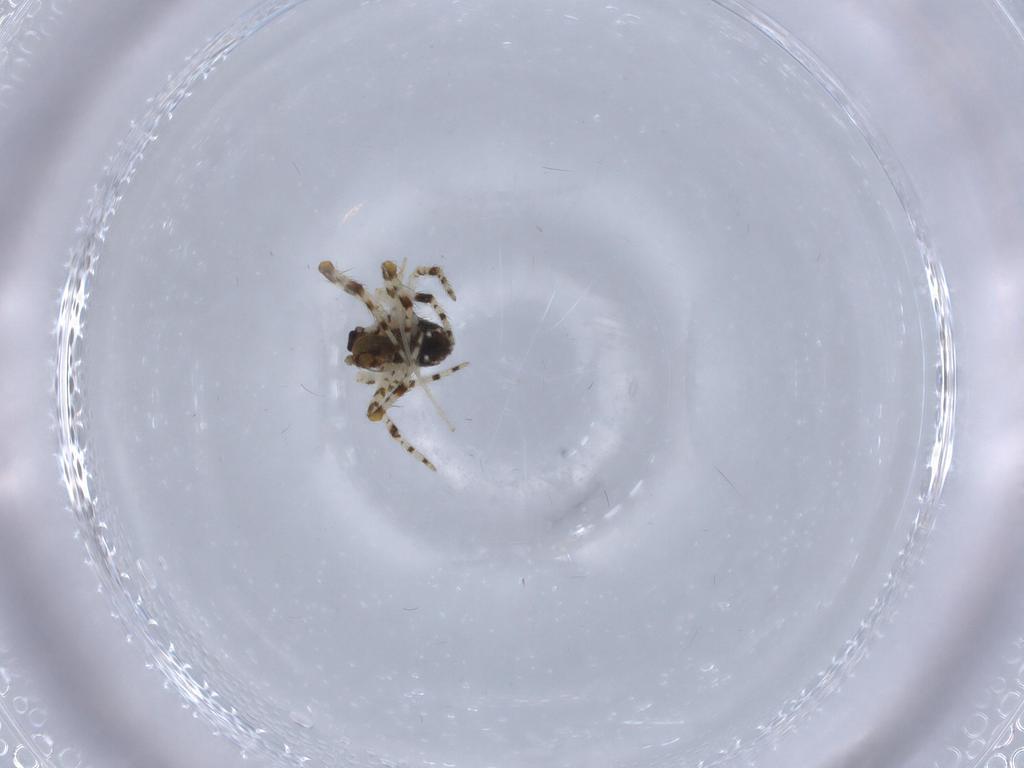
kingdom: Animalia
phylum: Arthropoda
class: Arachnida
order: Araneae
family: Theridiidae
